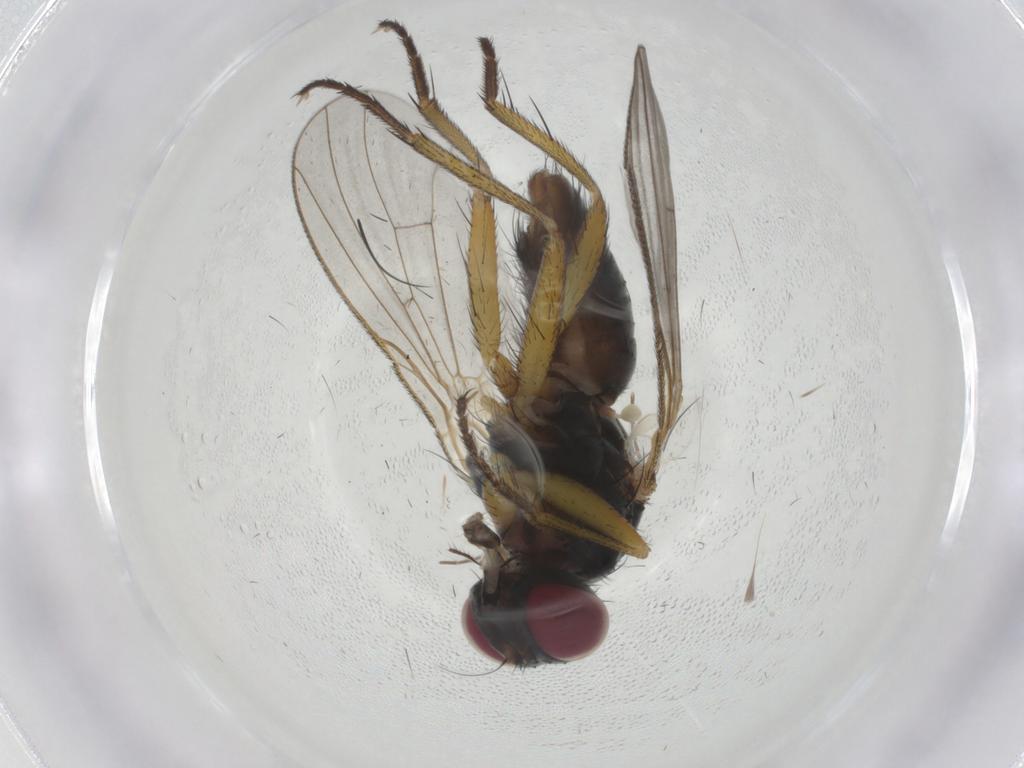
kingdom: Animalia
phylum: Arthropoda
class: Insecta
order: Diptera
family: Muscidae
